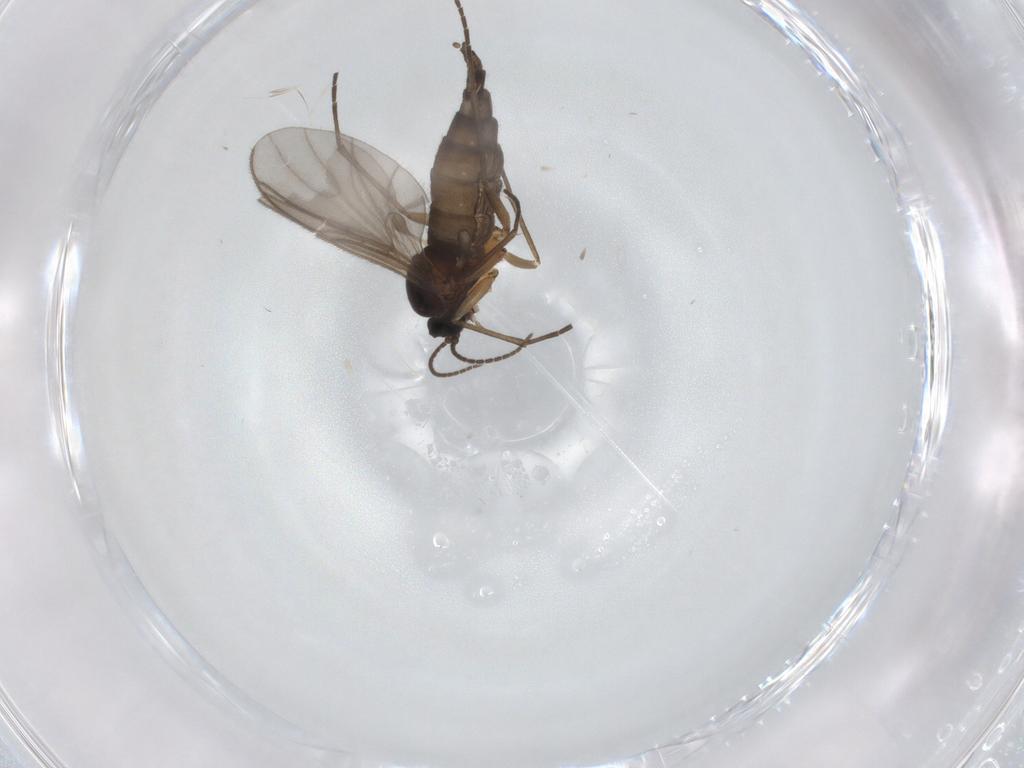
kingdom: Animalia
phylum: Arthropoda
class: Insecta
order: Diptera
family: Sciaridae
